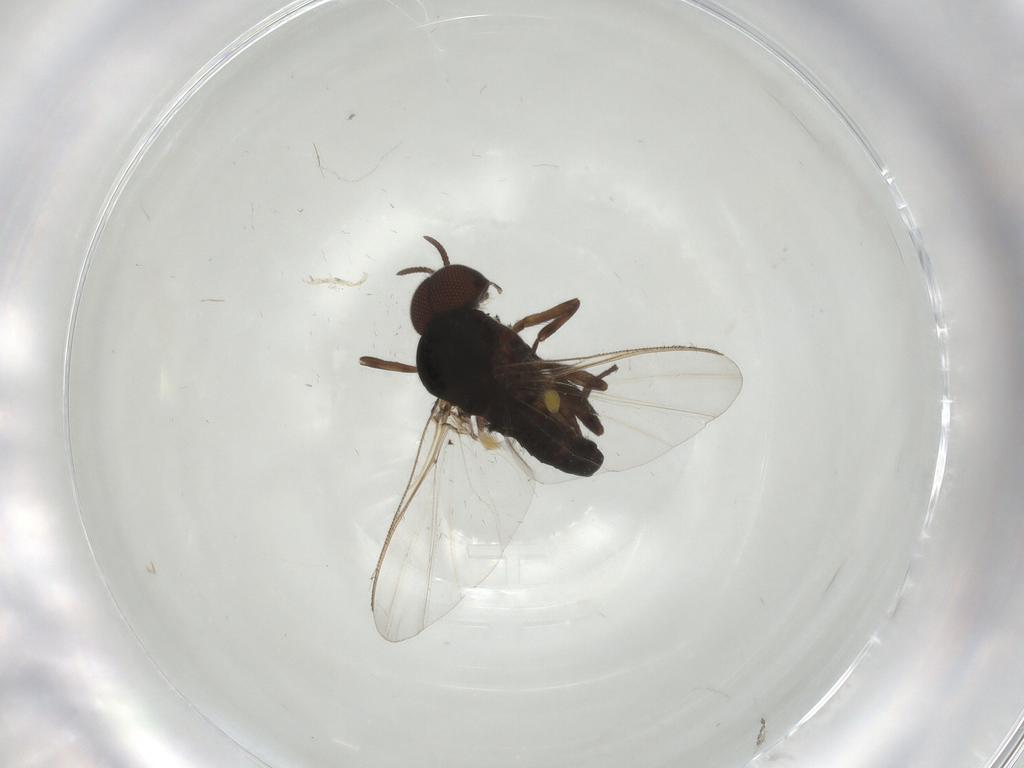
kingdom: Animalia
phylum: Arthropoda
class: Insecta
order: Diptera
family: Simuliidae
